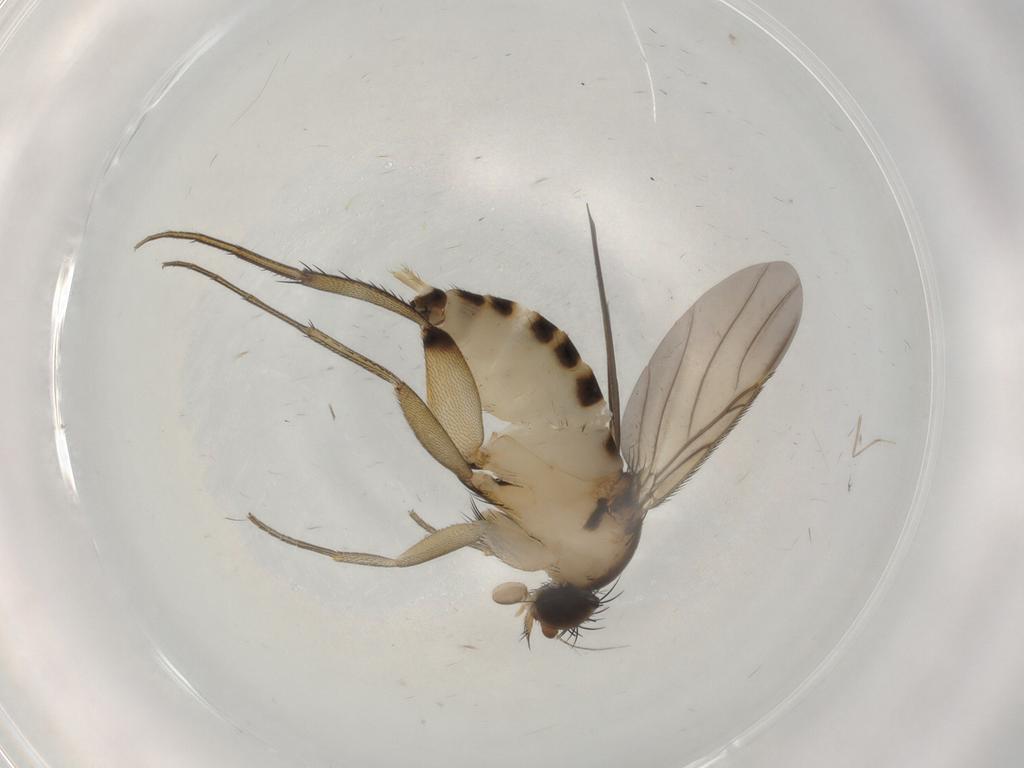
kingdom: Animalia
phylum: Arthropoda
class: Insecta
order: Diptera
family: Phoridae
